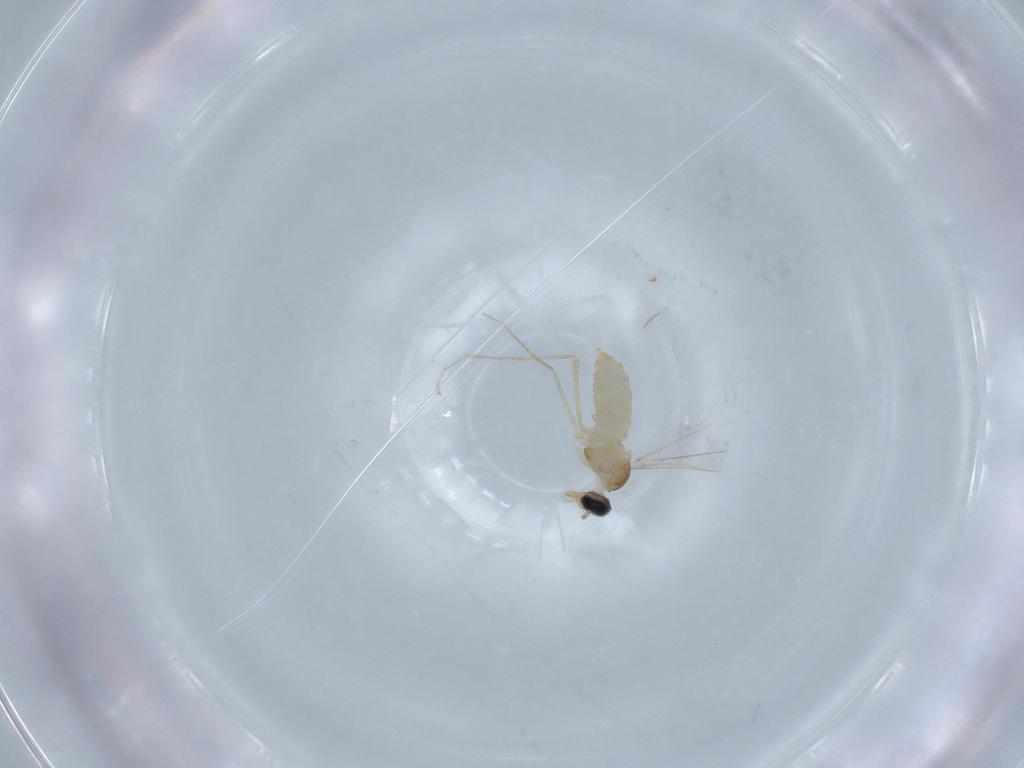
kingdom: Animalia
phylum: Arthropoda
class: Insecta
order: Diptera
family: Dolichopodidae
